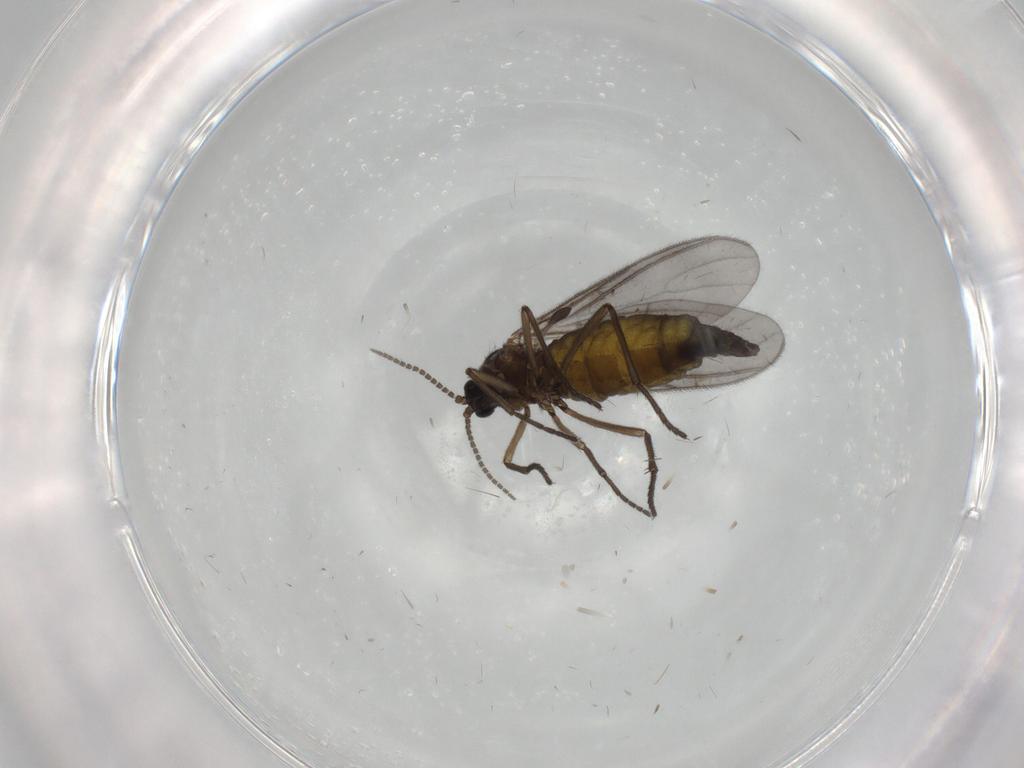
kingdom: Animalia
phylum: Arthropoda
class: Insecta
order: Diptera
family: Sciaridae
